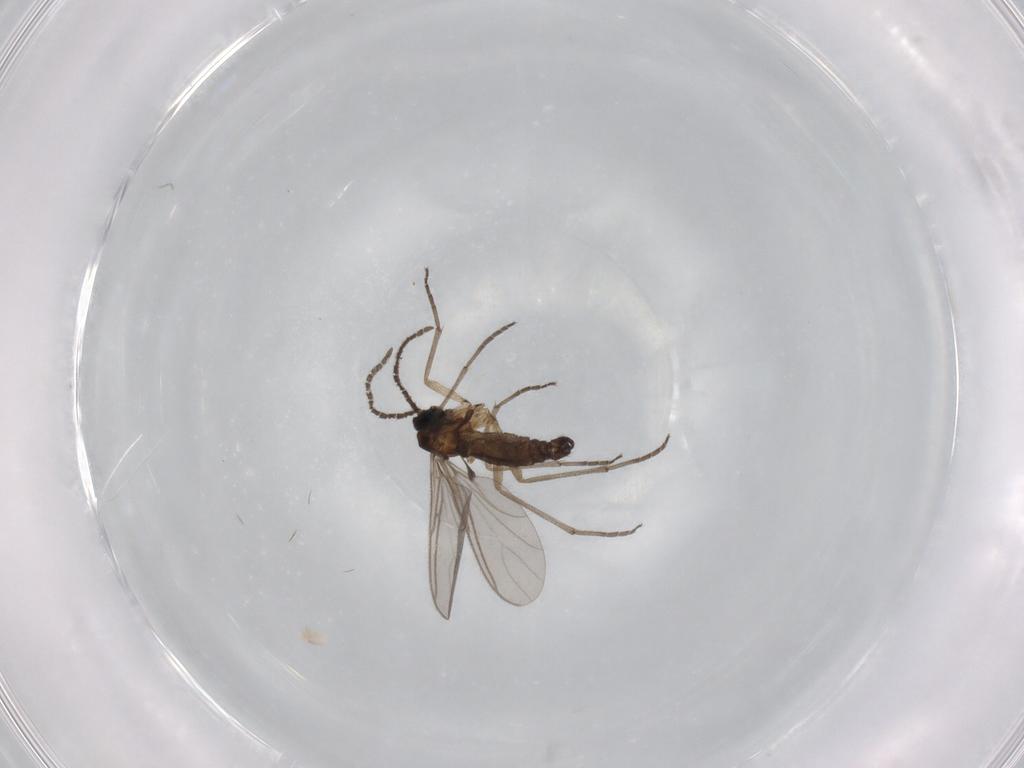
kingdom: Animalia
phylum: Arthropoda
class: Insecta
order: Diptera
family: Sciaridae
